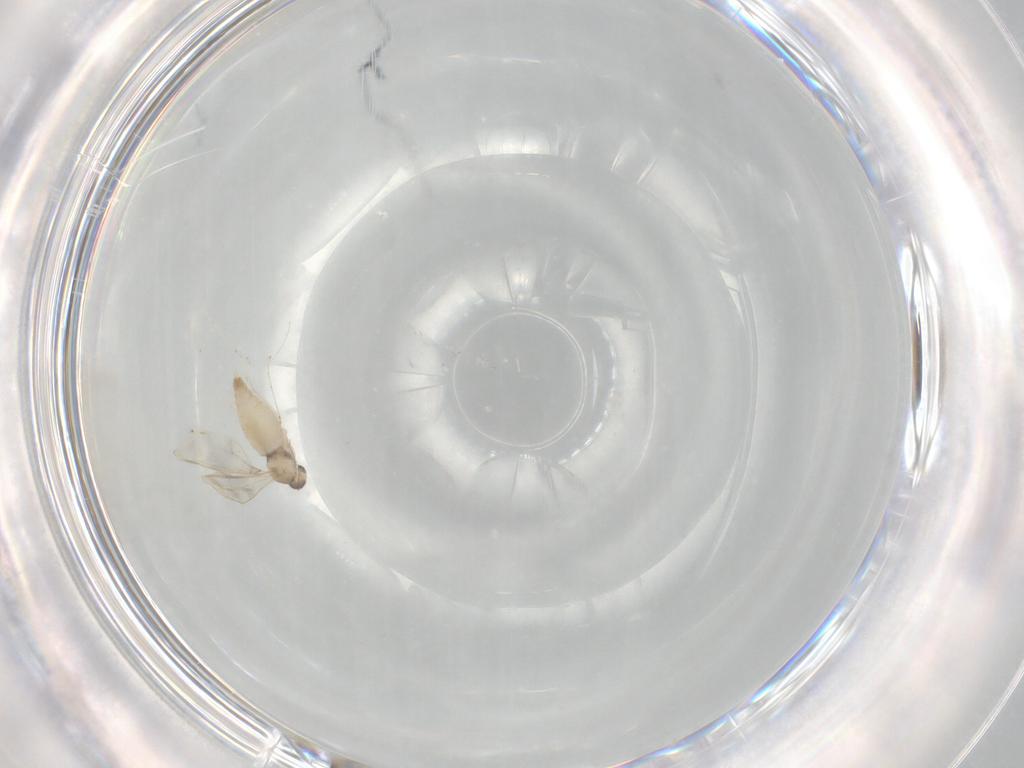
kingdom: Animalia
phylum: Arthropoda
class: Insecta
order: Diptera
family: Cecidomyiidae
